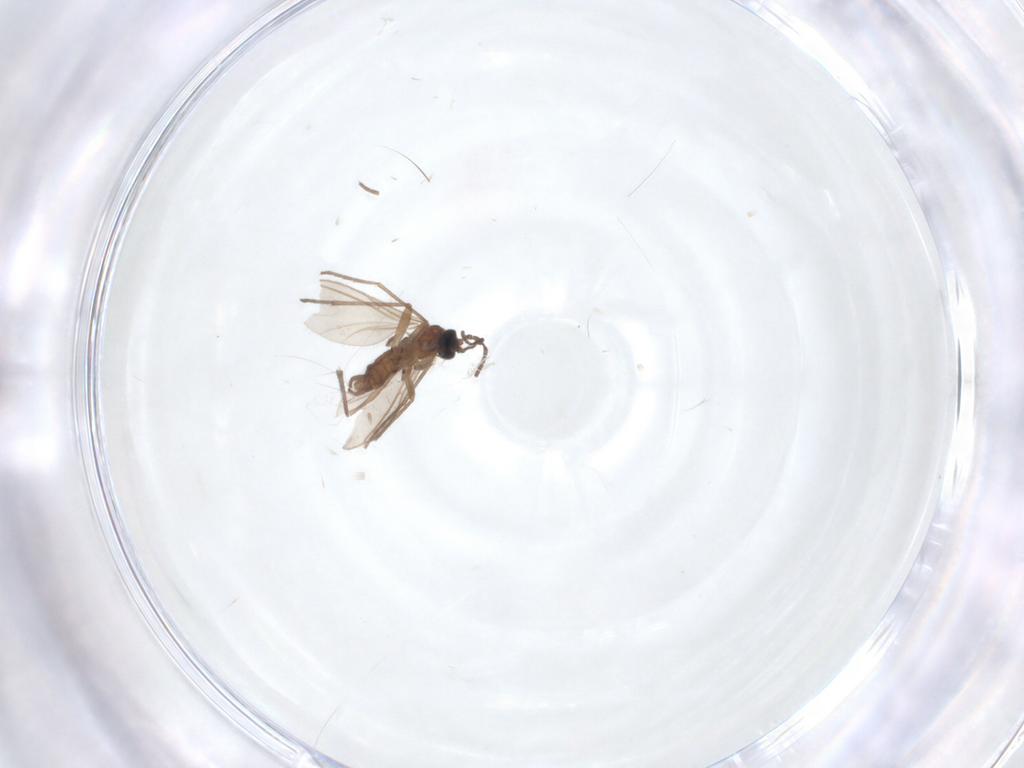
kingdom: Animalia
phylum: Arthropoda
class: Insecta
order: Diptera
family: Sciaridae
